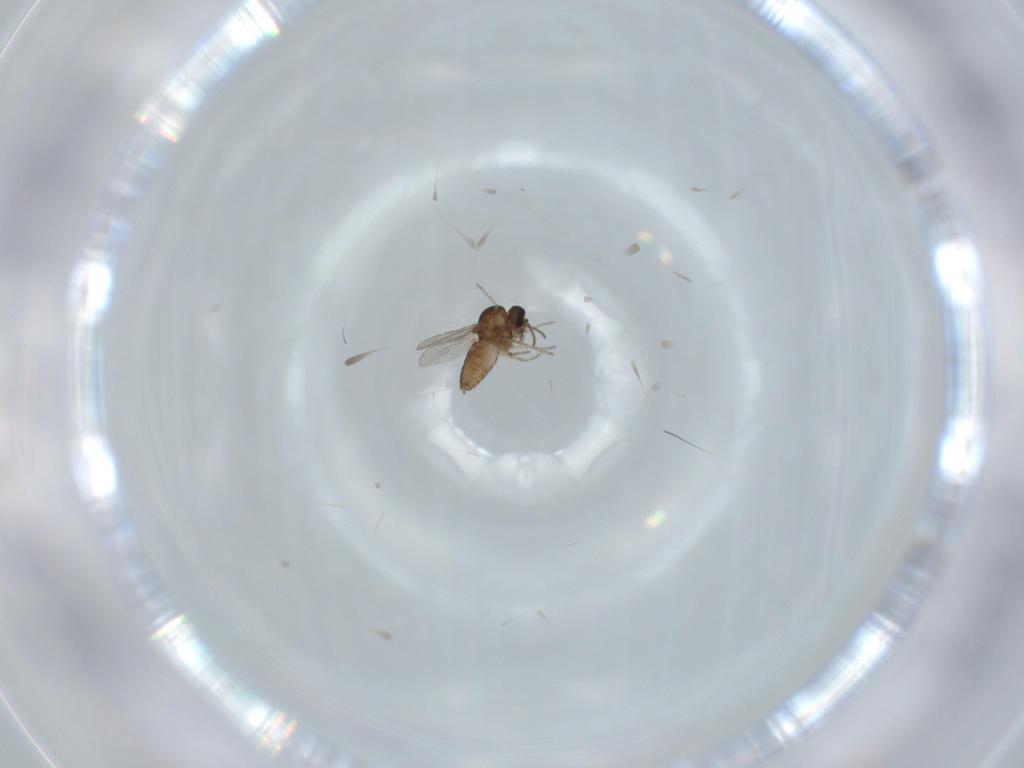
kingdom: Animalia
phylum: Arthropoda
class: Insecta
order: Diptera
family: Ceratopogonidae
